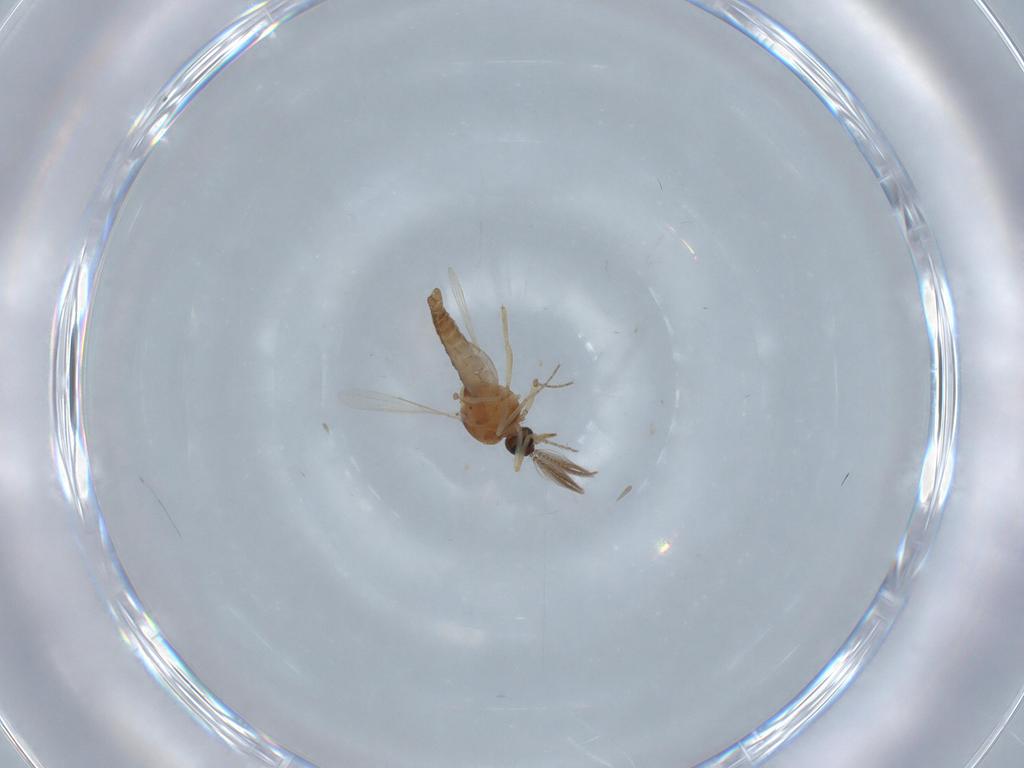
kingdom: Animalia
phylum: Arthropoda
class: Insecta
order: Diptera
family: Ceratopogonidae
